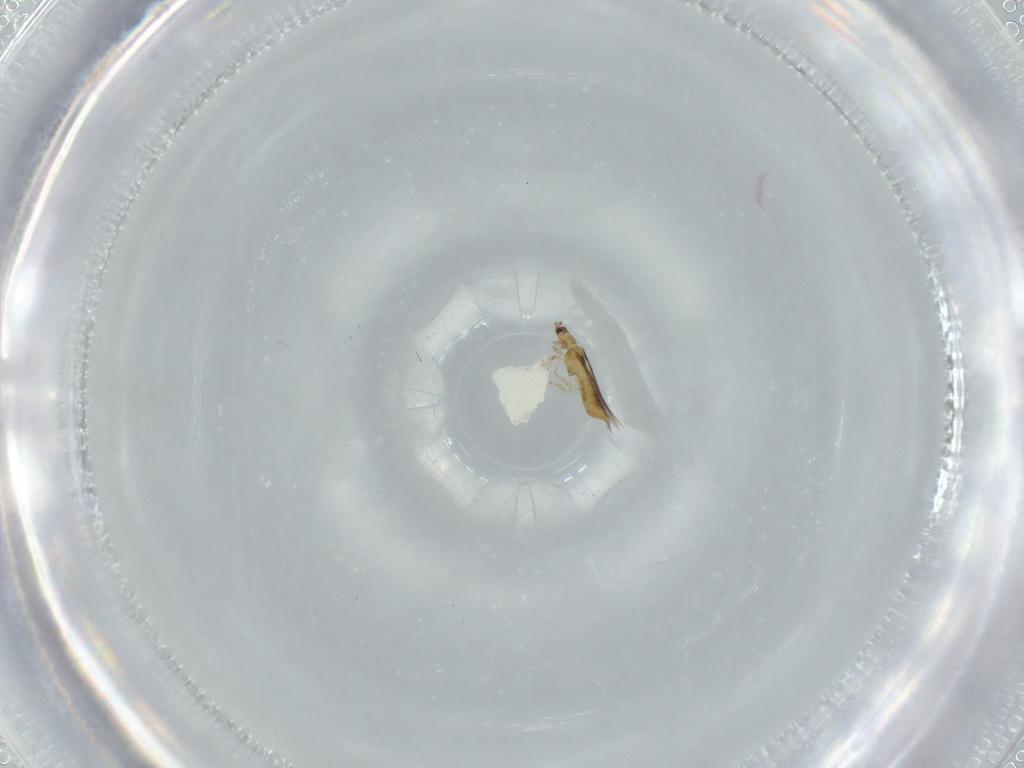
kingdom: Animalia
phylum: Arthropoda
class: Insecta
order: Thysanoptera
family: Thripidae
